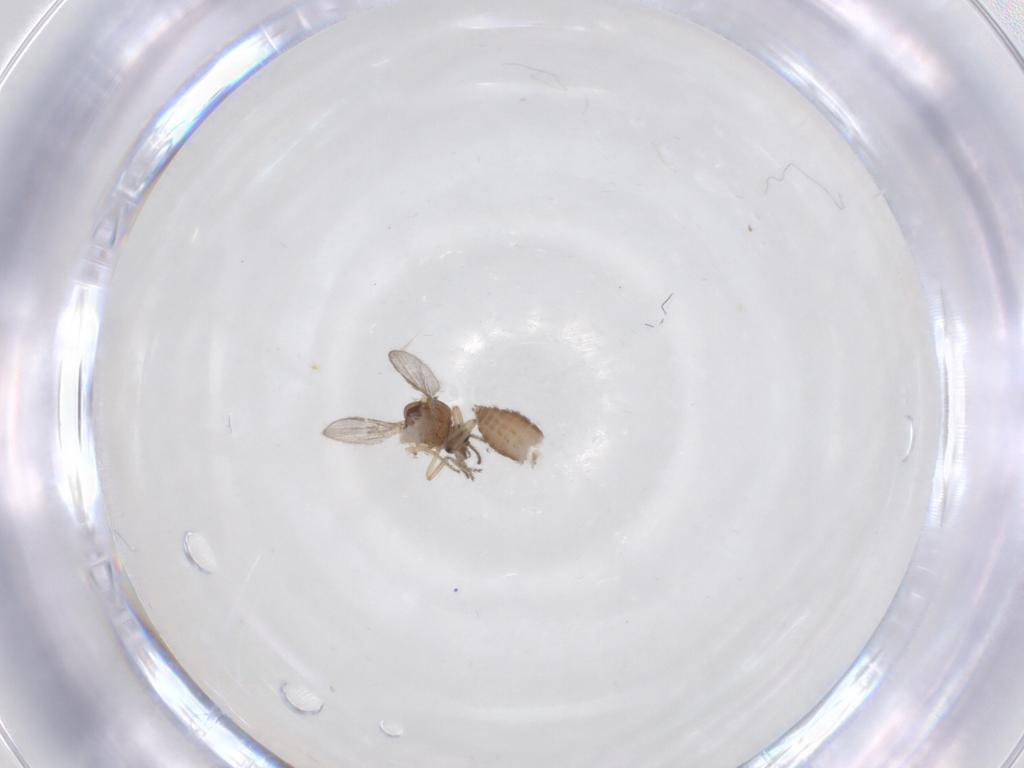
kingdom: Animalia
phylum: Arthropoda
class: Insecta
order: Diptera
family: Ceratopogonidae
